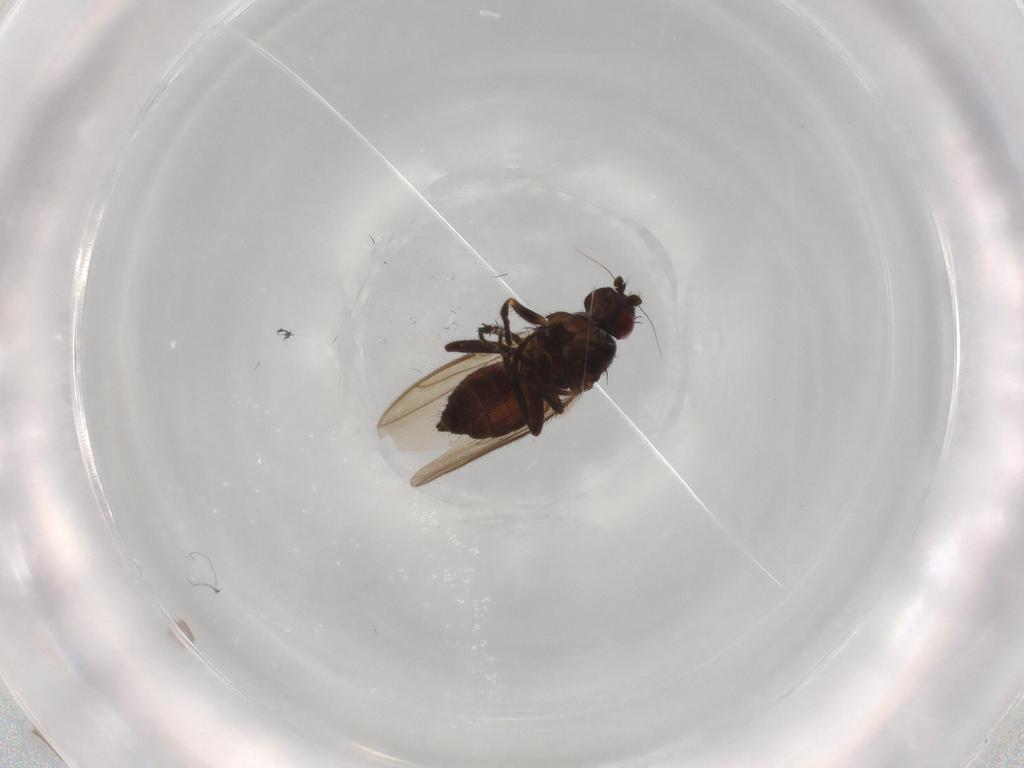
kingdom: Animalia
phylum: Arthropoda
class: Insecta
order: Diptera
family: Sphaeroceridae
